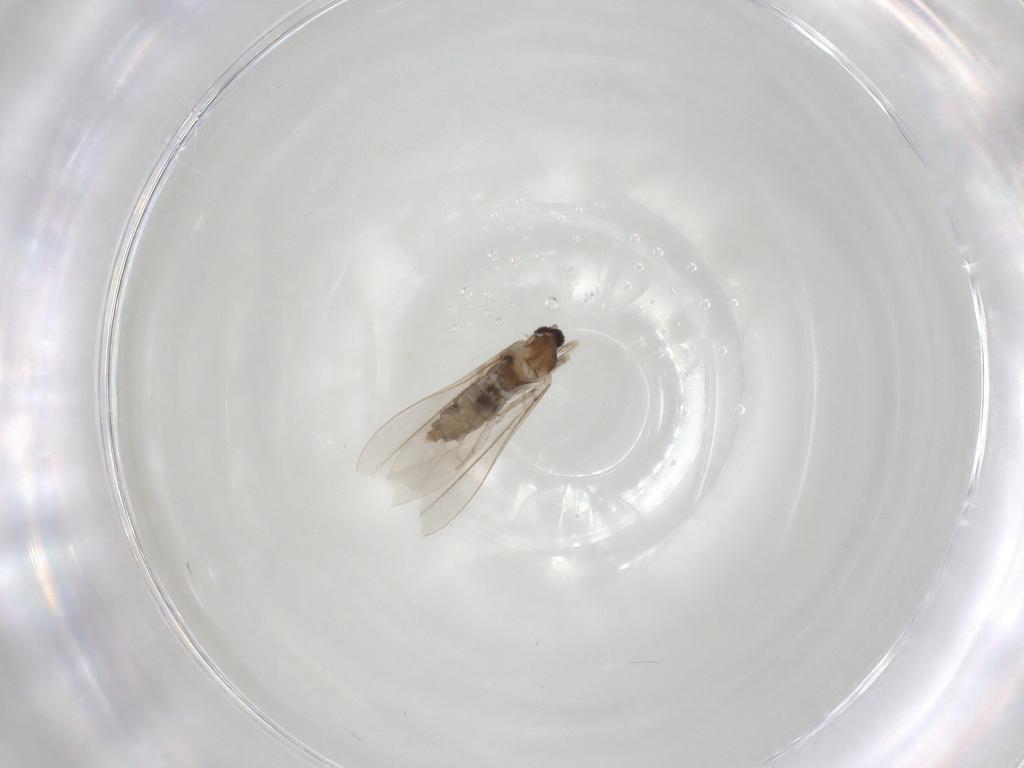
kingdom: Animalia
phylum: Arthropoda
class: Insecta
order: Diptera
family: Cecidomyiidae
